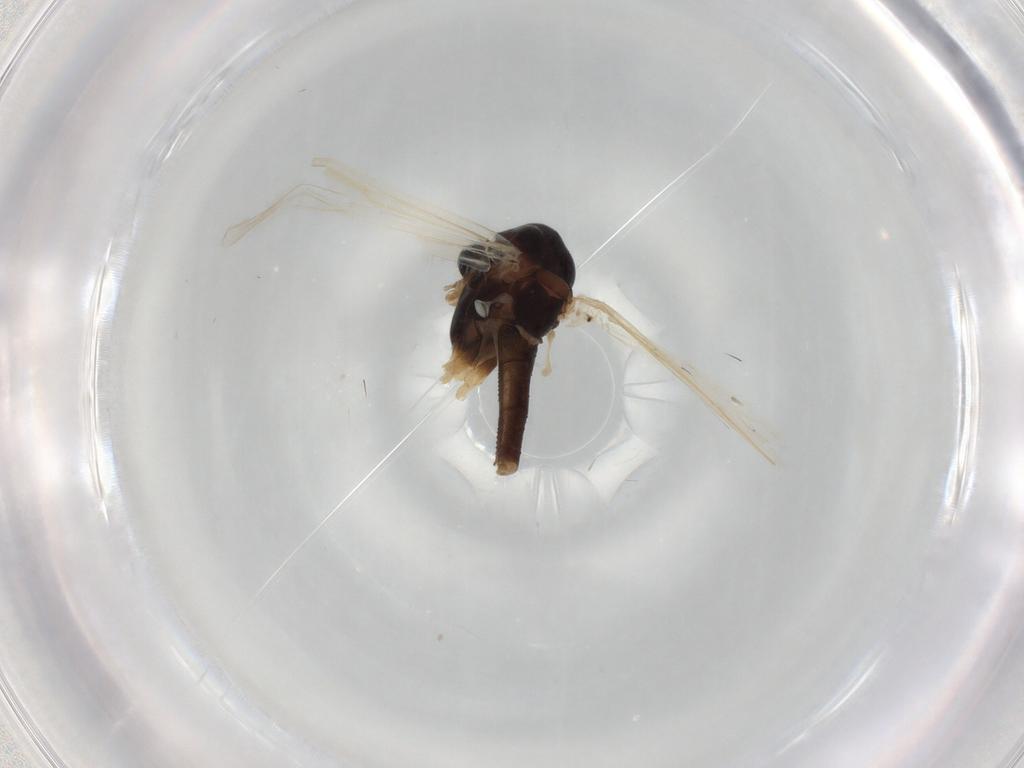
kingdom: Animalia
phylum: Arthropoda
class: Insecta
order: Diptera
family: Chironomidae
